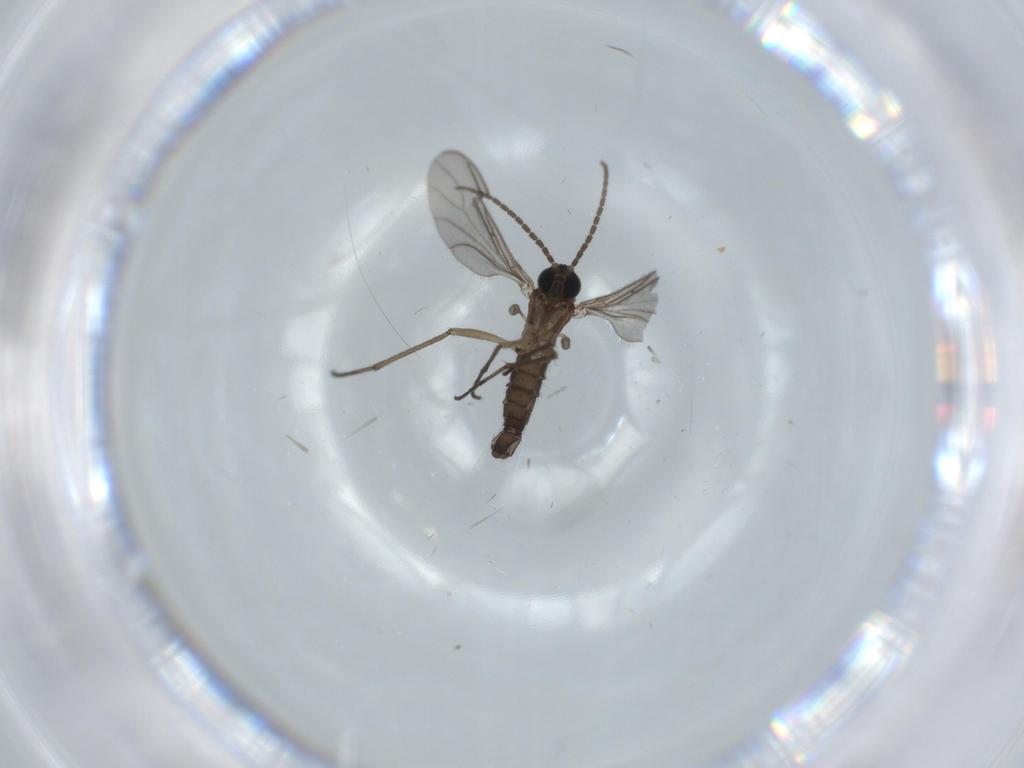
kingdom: Animalia
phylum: Arthropoda
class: Insecta
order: Diptera
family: Sciaridae
